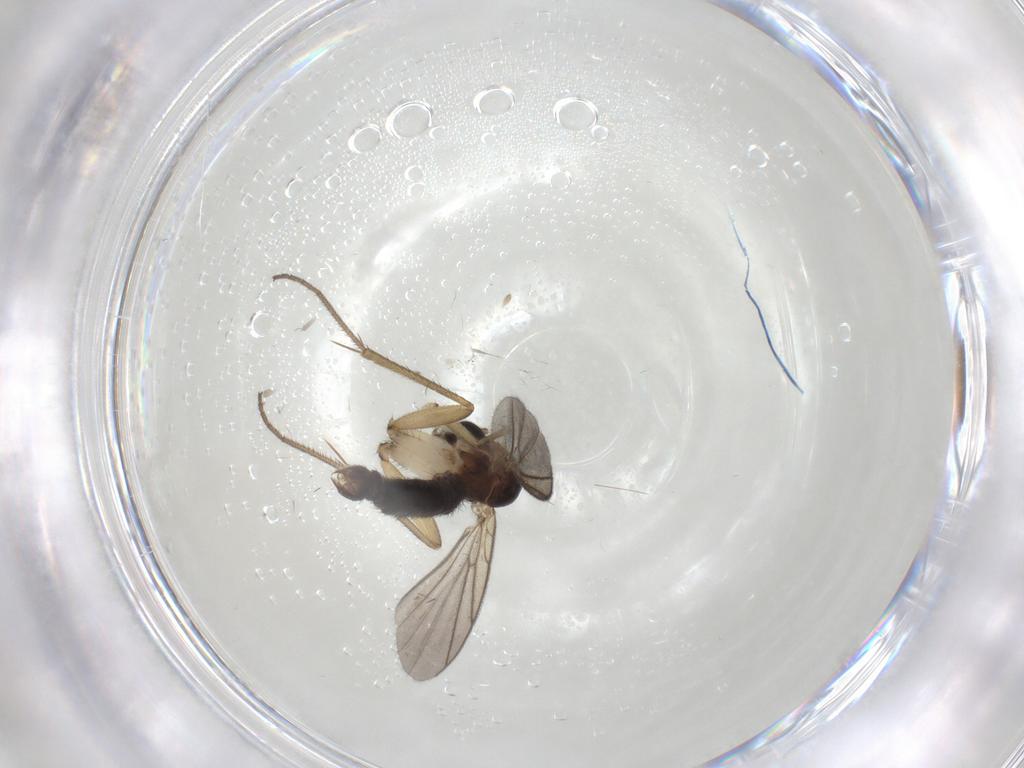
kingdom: Animalia
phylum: Arthropoda
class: Insecta
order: Diptera
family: Mycetophilidae
